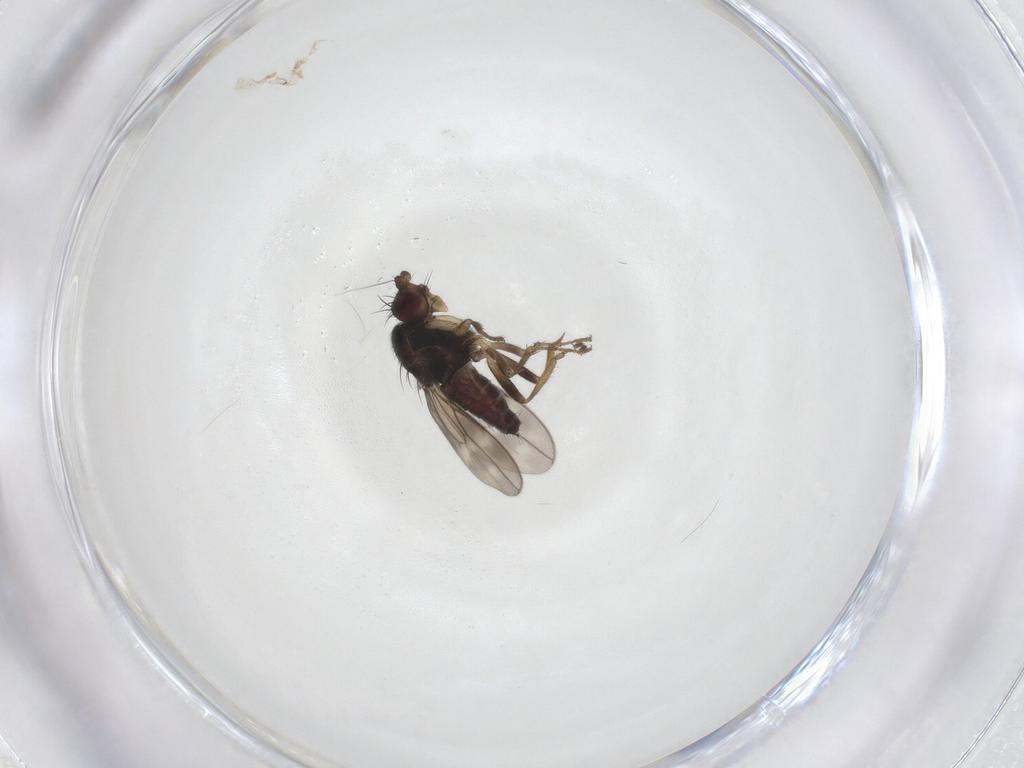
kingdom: Animalia
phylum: Arthropoda
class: Insecta
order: Diptera
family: Sphaeroceridae
